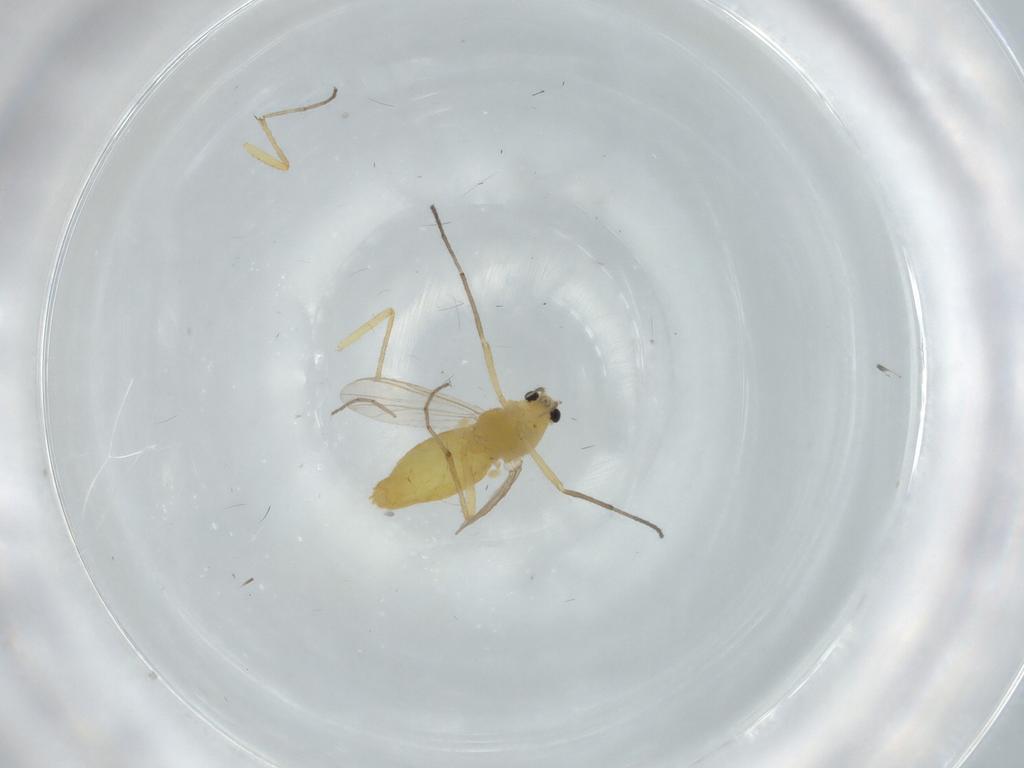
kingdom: Animalia
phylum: Arthropoda
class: Insecta
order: Diptera
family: Chironomidae
